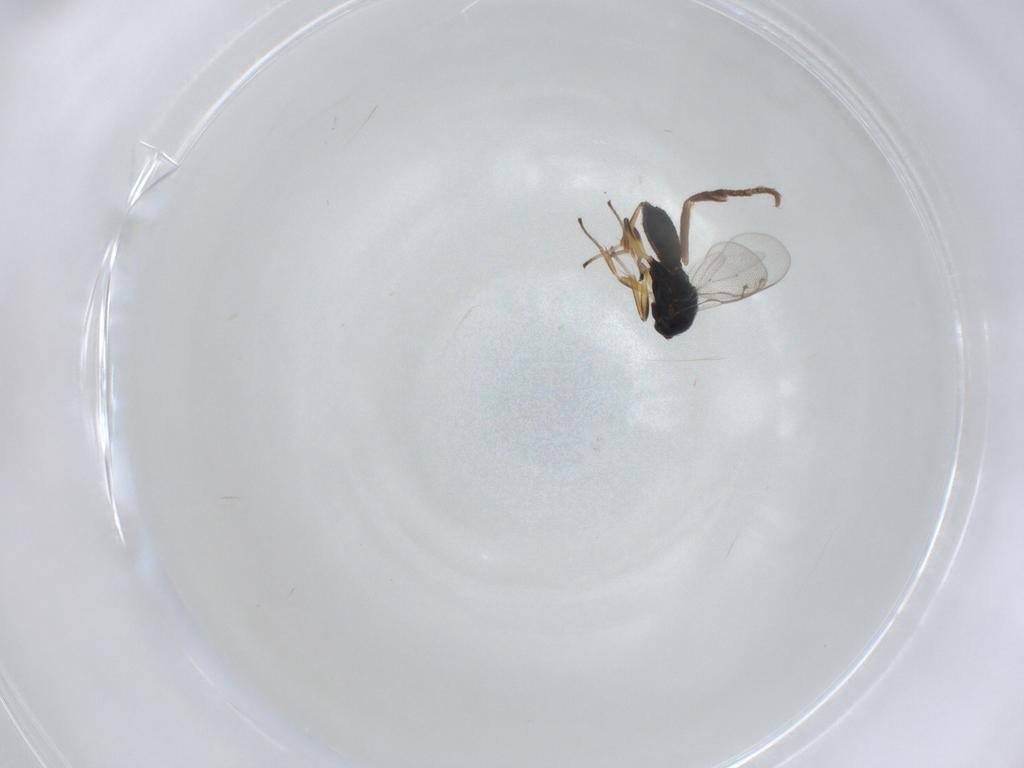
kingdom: Animalia
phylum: Arthropoda
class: Insecta
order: Hymenoptera
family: Eupelmidae
